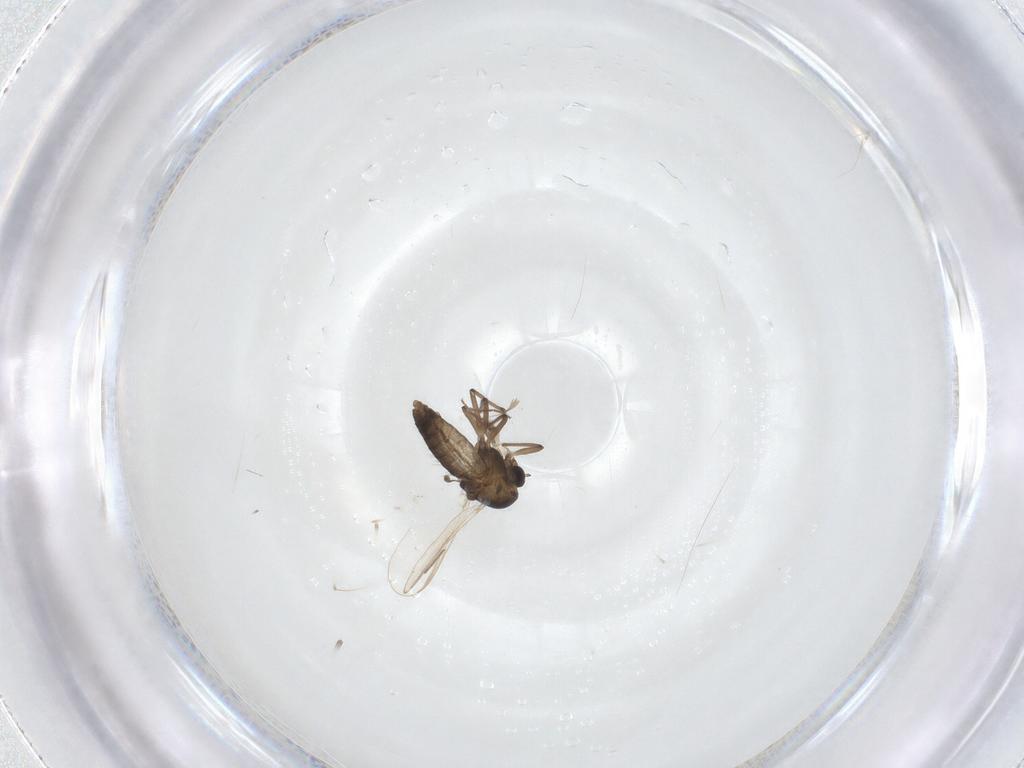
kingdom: Animalia
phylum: Arthropoda
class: Insecta
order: Diptera
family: Chironomidae
